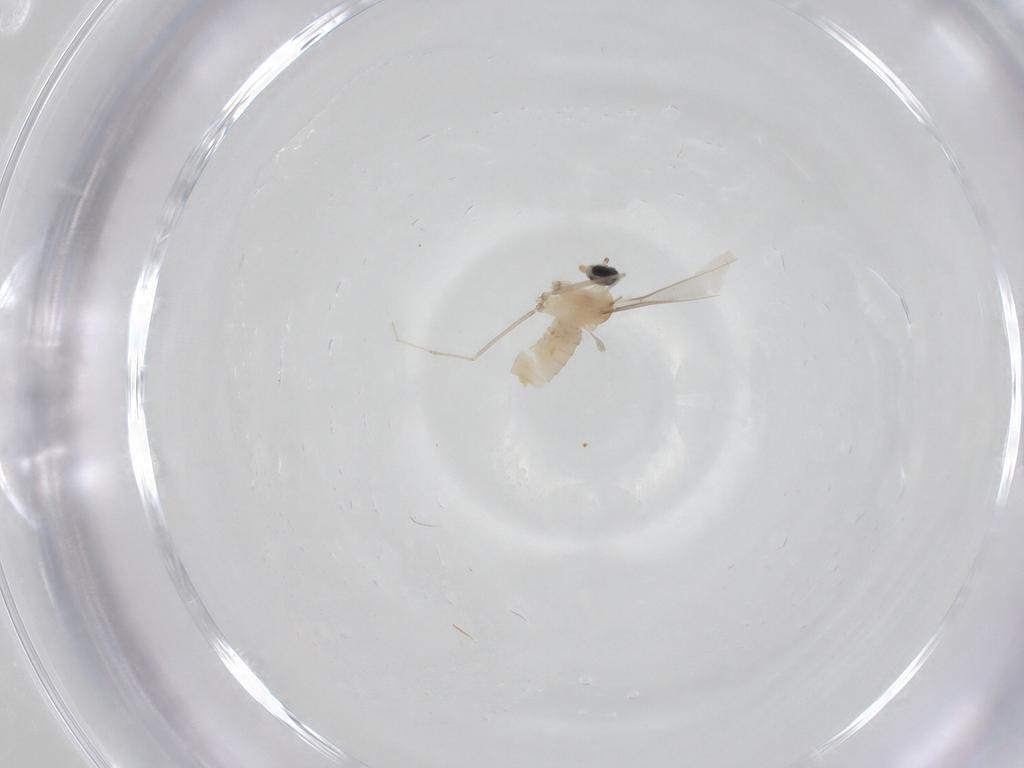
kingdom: Animalia
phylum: Arthropoda
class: Insecta
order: Diptera
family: Cecidomyiidae
